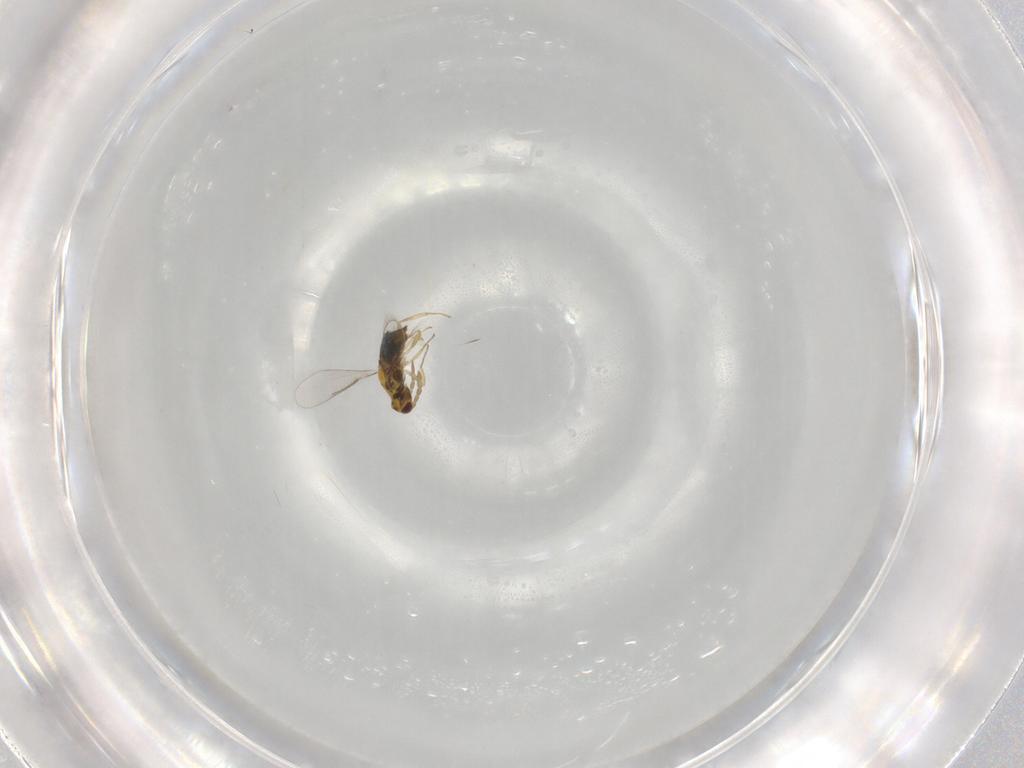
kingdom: Animalia
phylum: Arthropoda
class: Insecta
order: Hymenoptera
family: Aphelinidae
